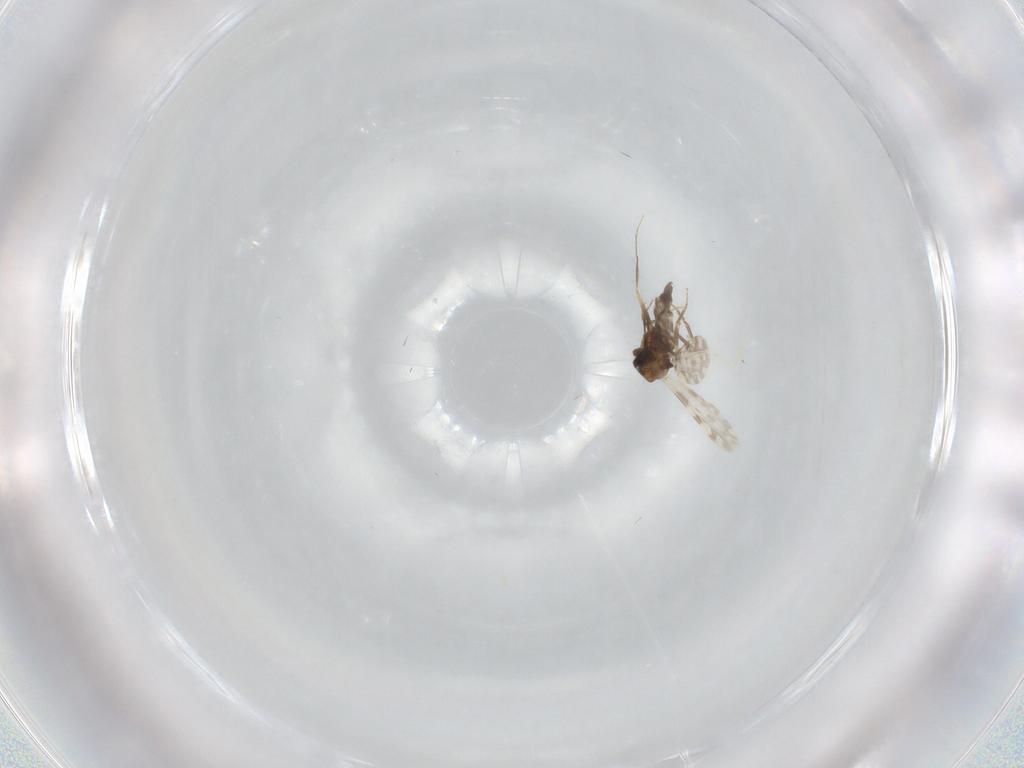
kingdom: Animalia
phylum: Arthropoda
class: Insecta
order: Diptera
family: Ceratopogonidae
